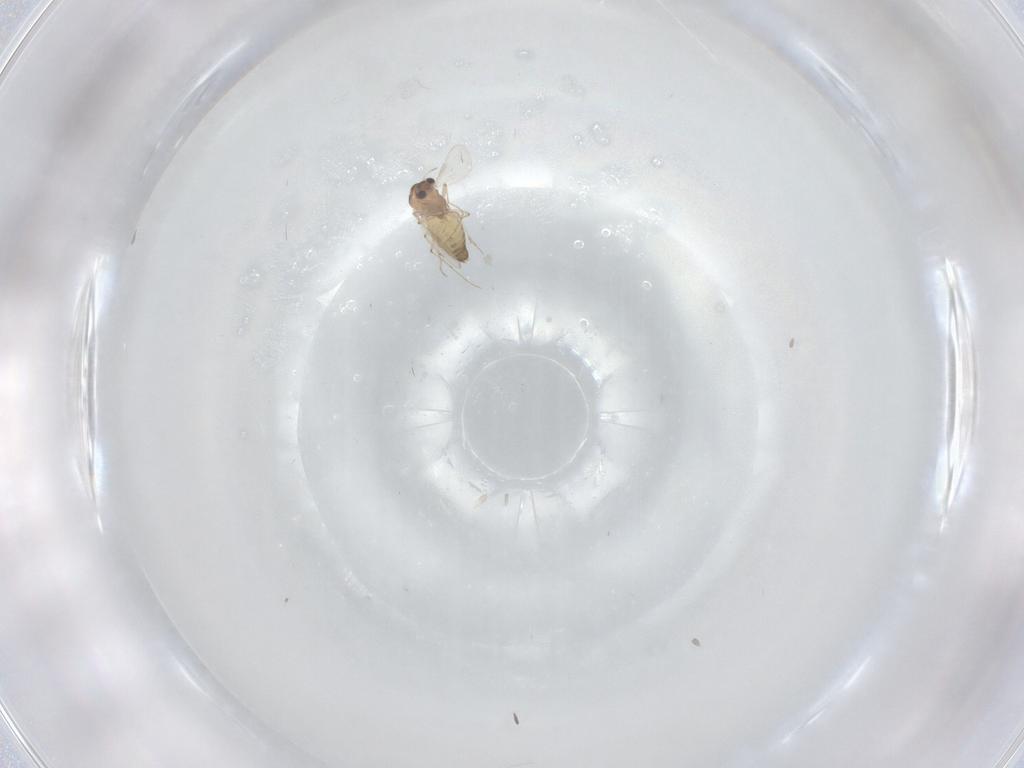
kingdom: Animalia
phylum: Arthropoda
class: Insecta
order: Diptera
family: Chironomidae
